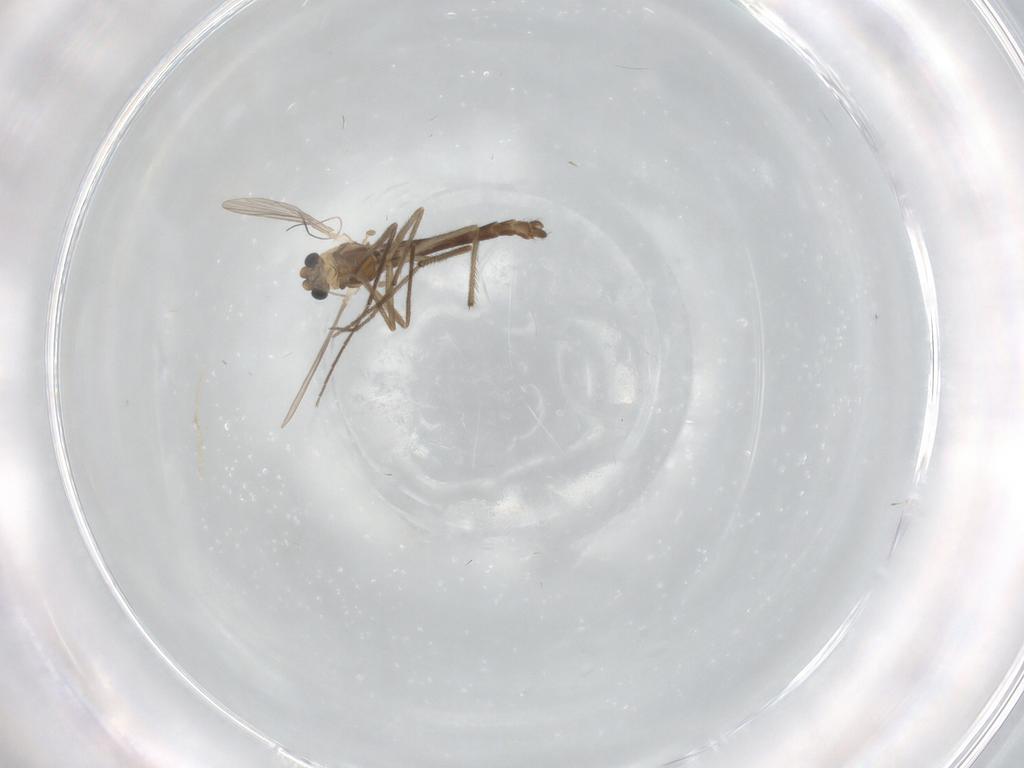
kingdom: Animalia
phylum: Arthropoda
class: Insecta
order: Diptera
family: Chironomidae
